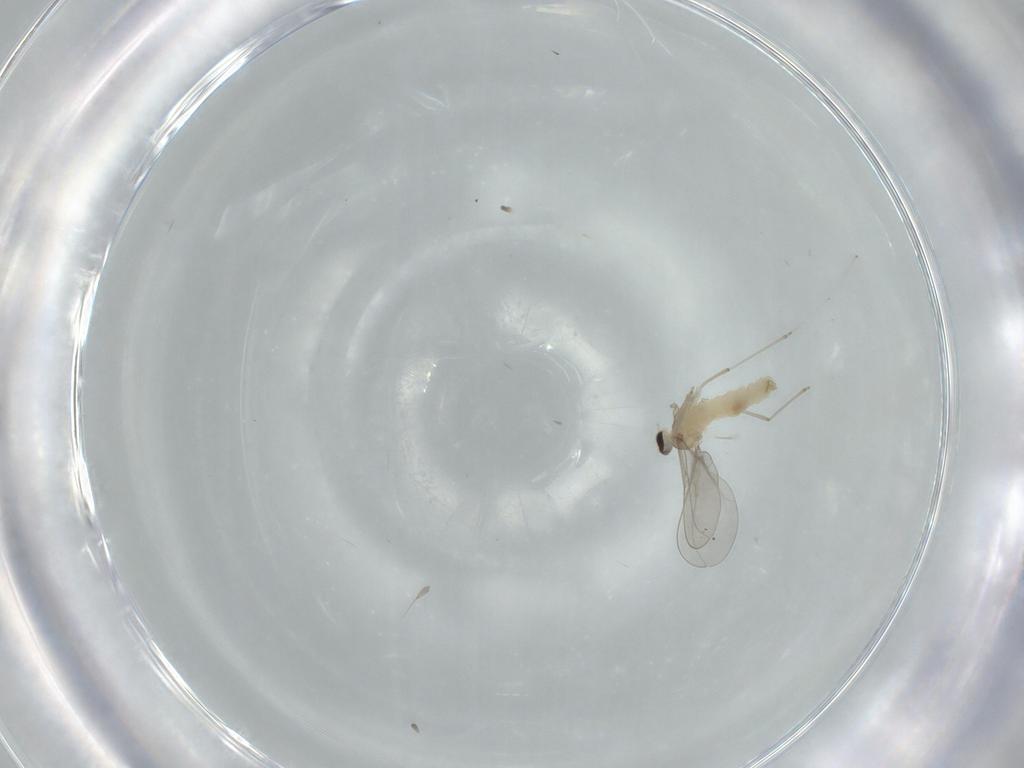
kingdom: Animalia
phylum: Arthropoda
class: Insecta
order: Diptera
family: Cecidomyiidae
